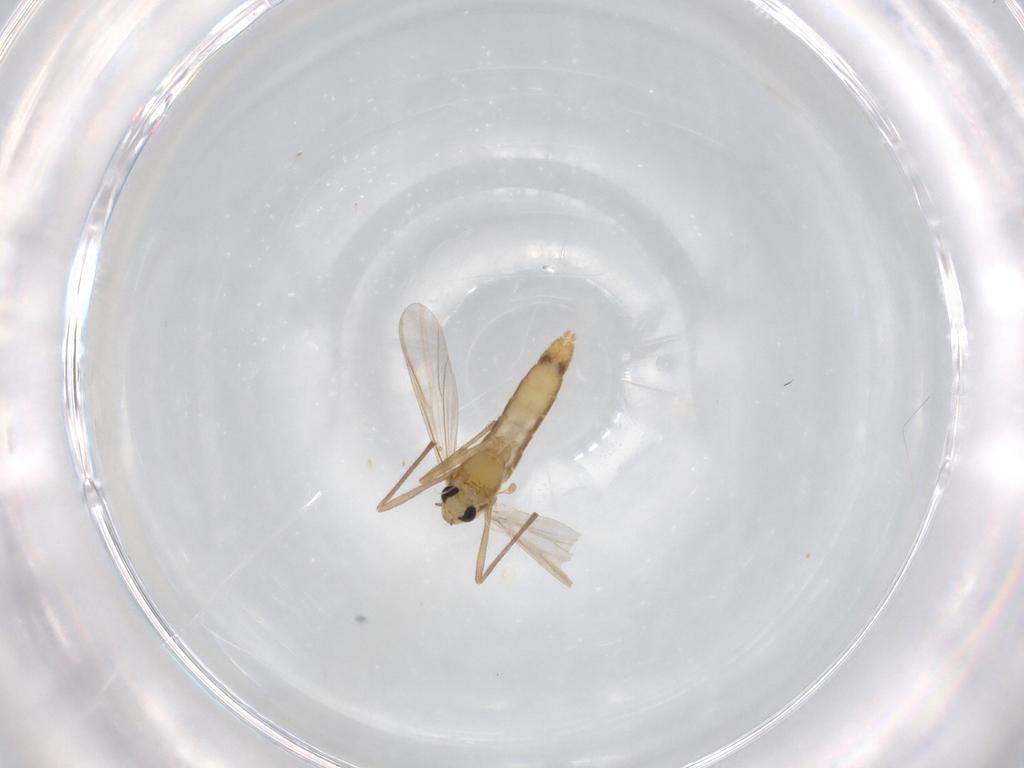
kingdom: Animalia
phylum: Arthropoda
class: Insecta
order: Diptera
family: Chironomidae
